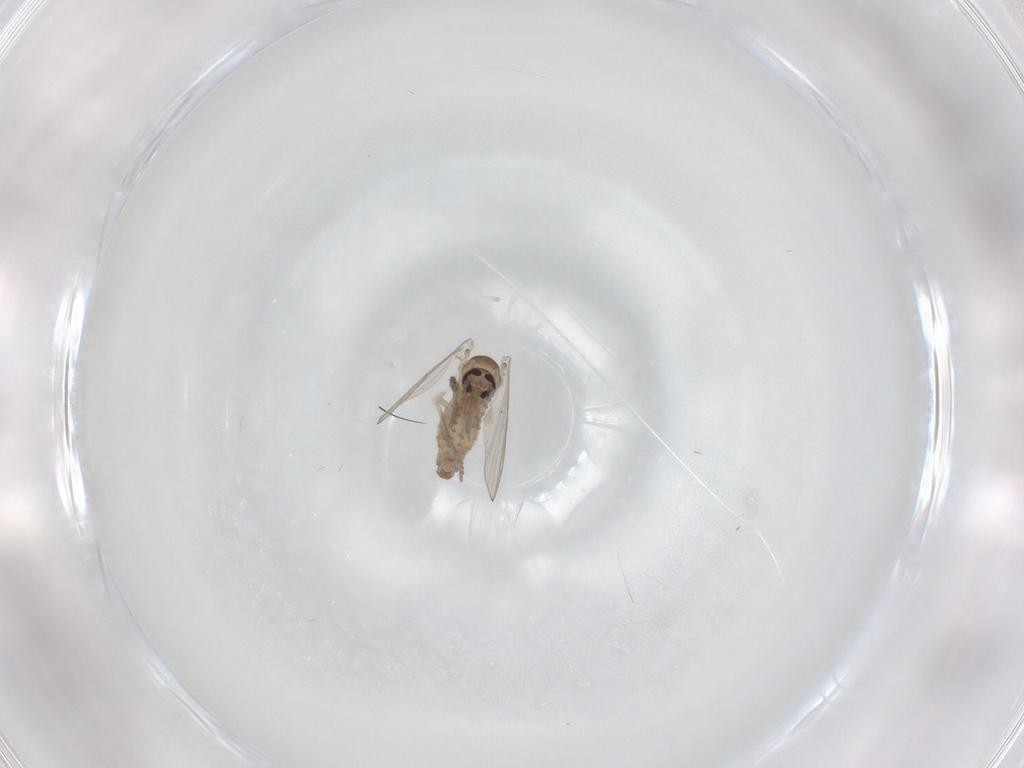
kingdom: Animalia
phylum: Arthropoda
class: Insecta
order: Diptera
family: Psychodidae
